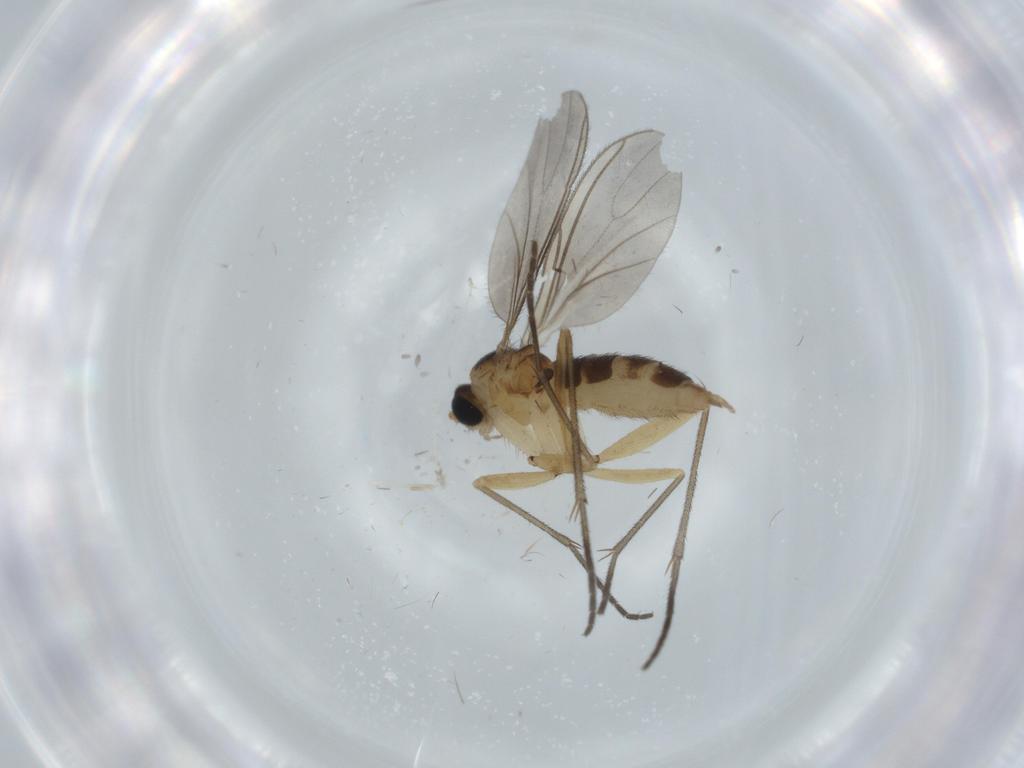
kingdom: Animalia
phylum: Arthropoda
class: Insecta
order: Diptera
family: Sciaridae
